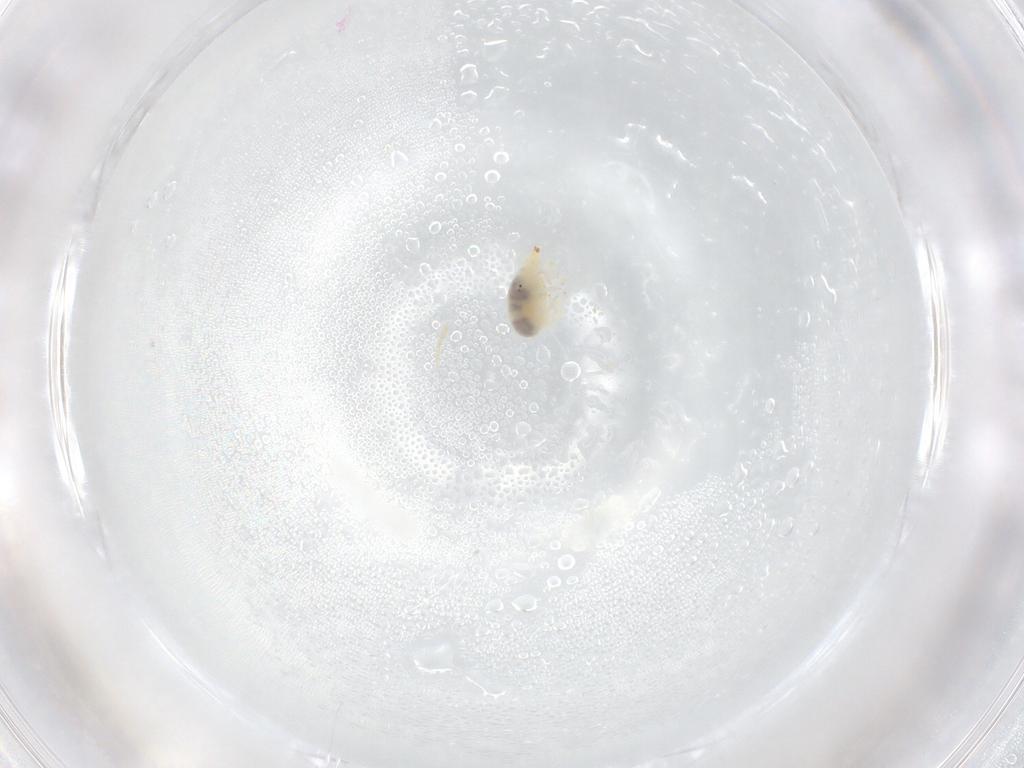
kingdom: Animalia
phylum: Arthropoda
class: Arachnida
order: Trombidiformes
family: Bdellidae
